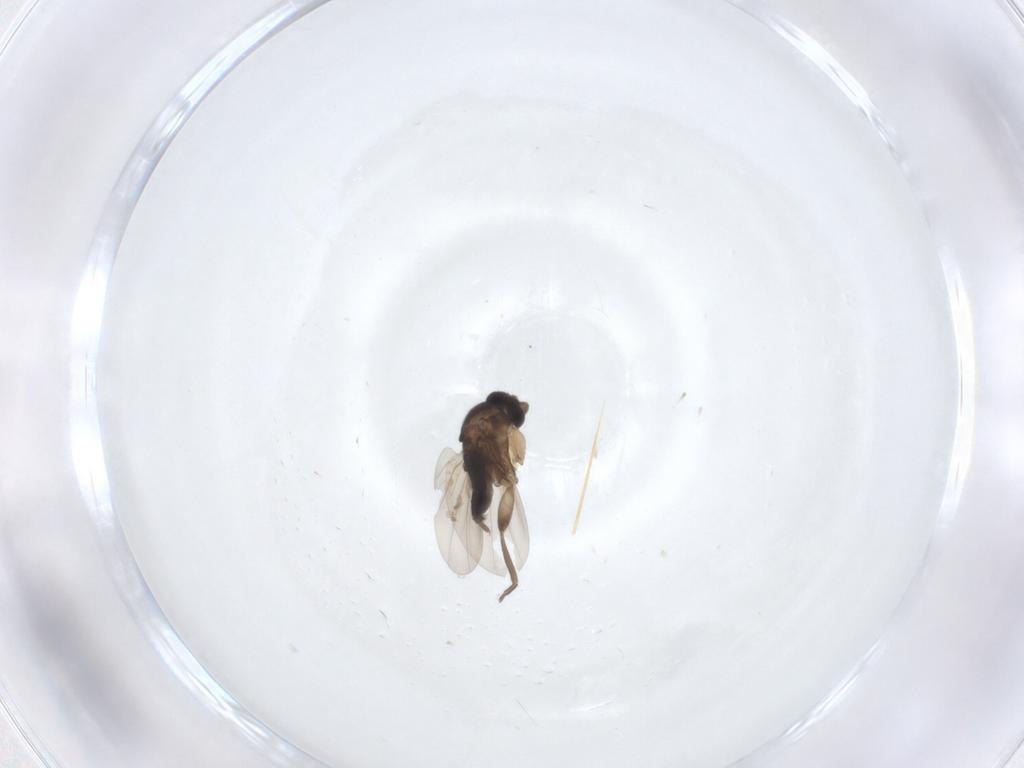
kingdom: Animalia
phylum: Arthropoda
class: Insecta
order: Diptera
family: Phoridae
